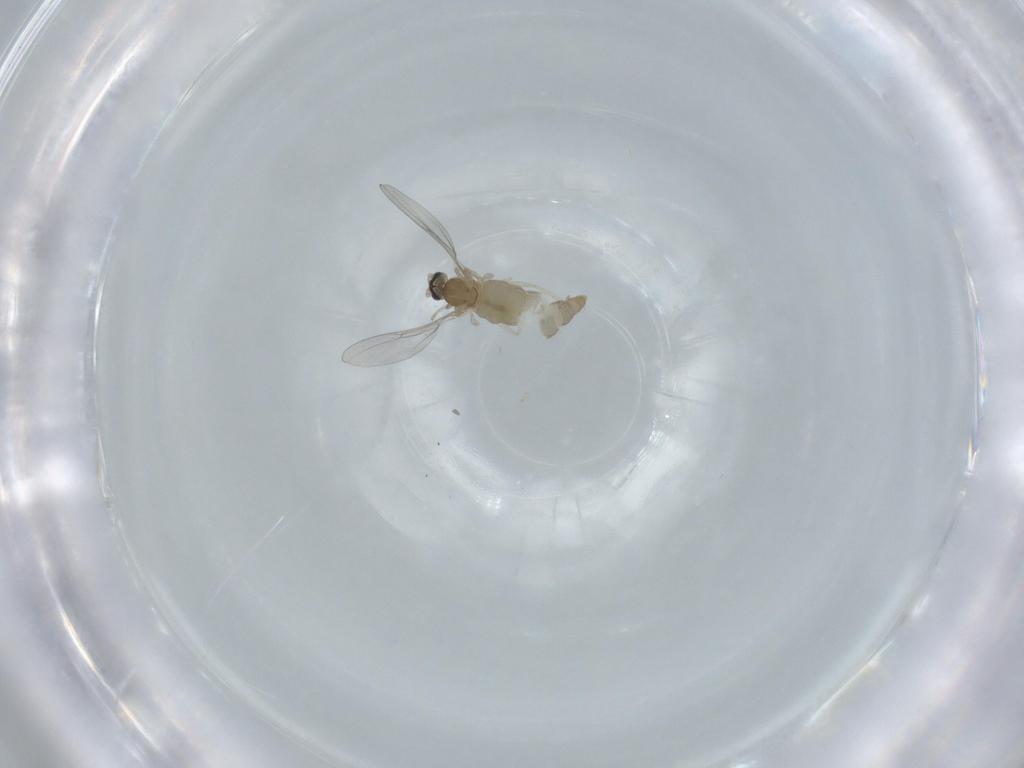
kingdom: Animalia
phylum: Arthropoda
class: Insecta
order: Diptera
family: Cecidomyiidae
